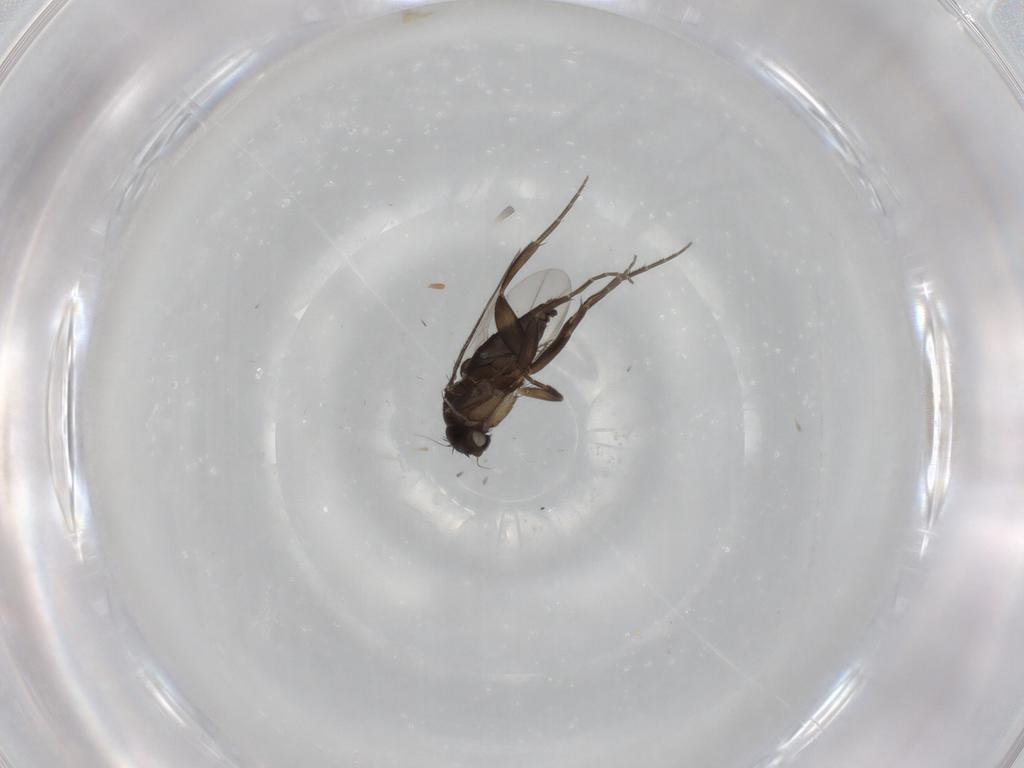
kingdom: Animalia
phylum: Arthropoda
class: Insecta
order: Diptera
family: Phoridae
